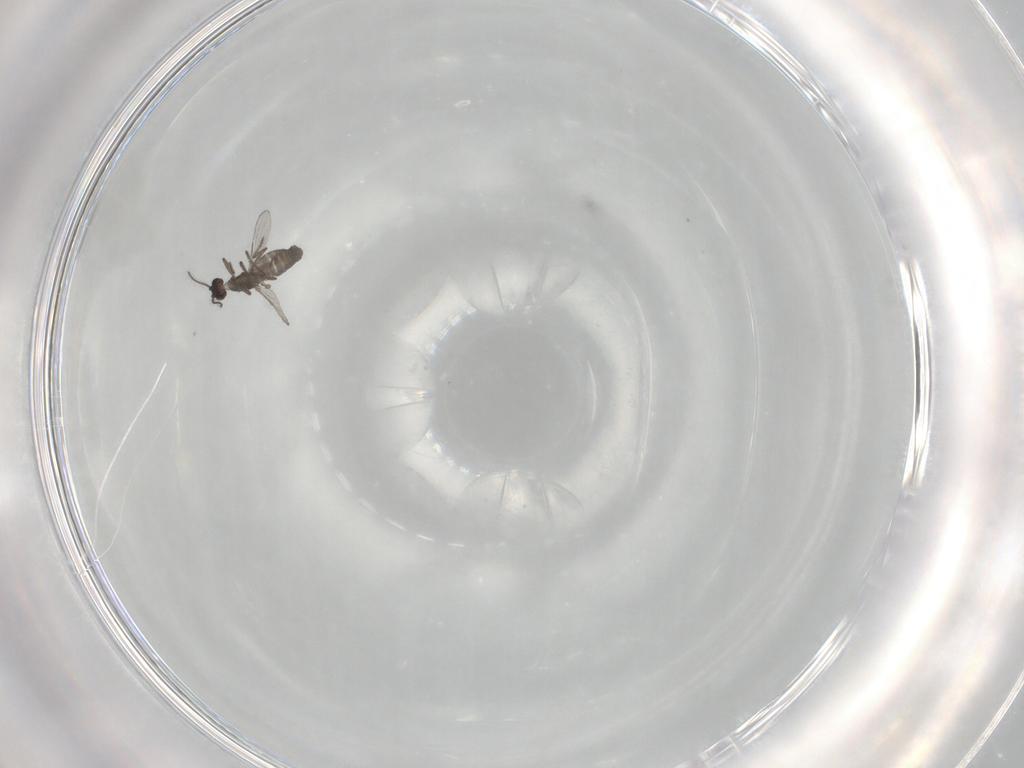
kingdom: Animalia
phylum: Arthropoda
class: Insecta
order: Diptera
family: Ceratopogonidae
